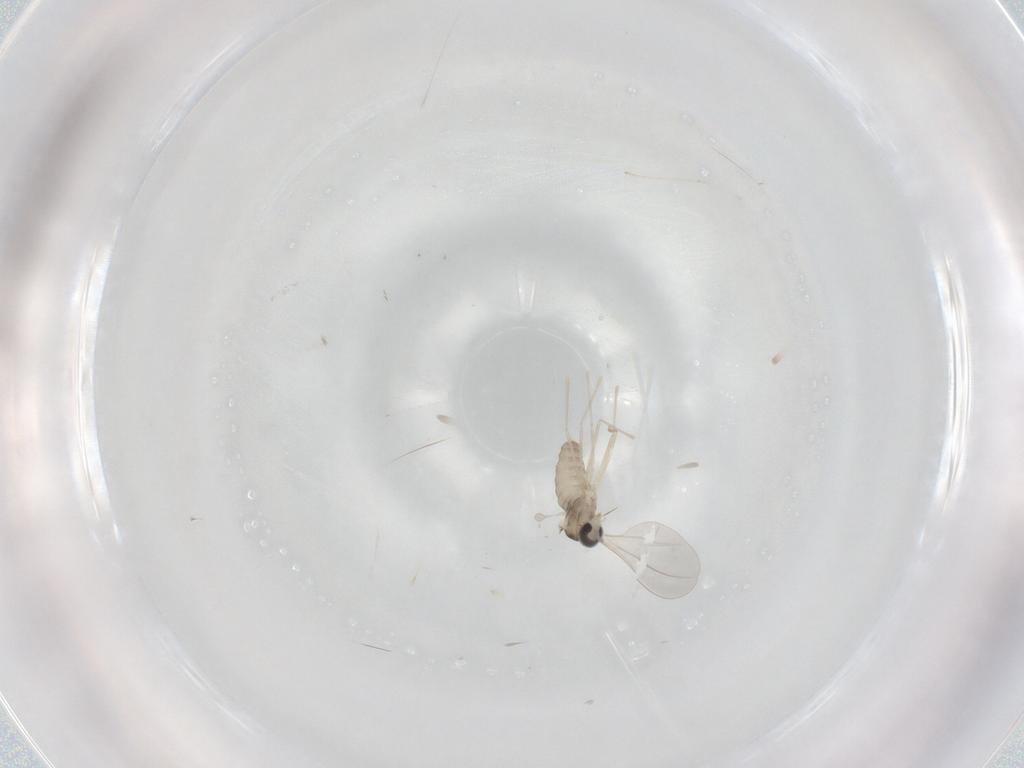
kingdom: Animalia
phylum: Arthropoda
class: Insecta
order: Diptera
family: Cecidomyiidae
